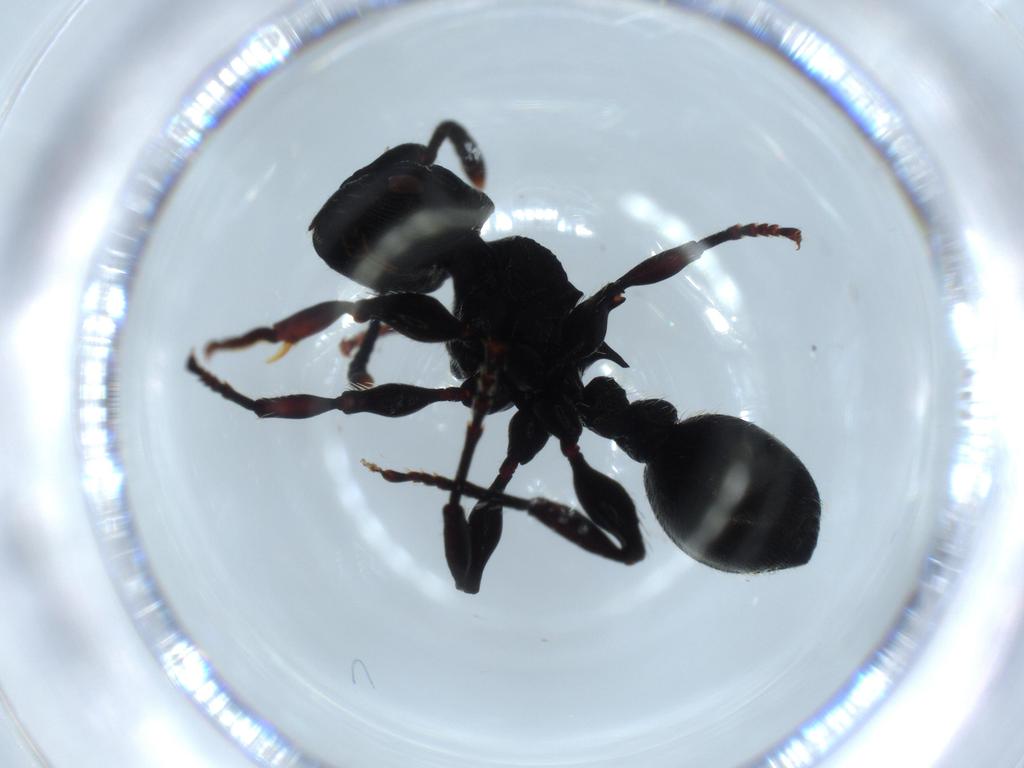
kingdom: Animalia
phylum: Arthropoda
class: Insecta
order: Hymenoptera
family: Formicidae
